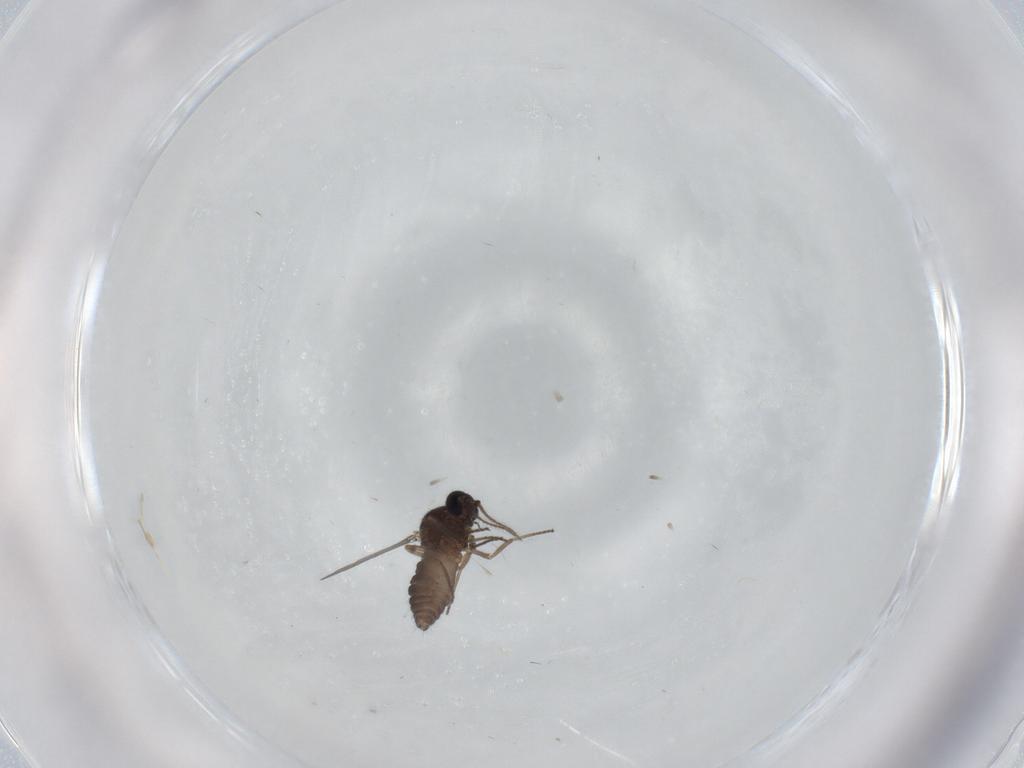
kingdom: Animalia
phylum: Arthropoda
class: Insecta
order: Diptera
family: Ceratopogonidae
